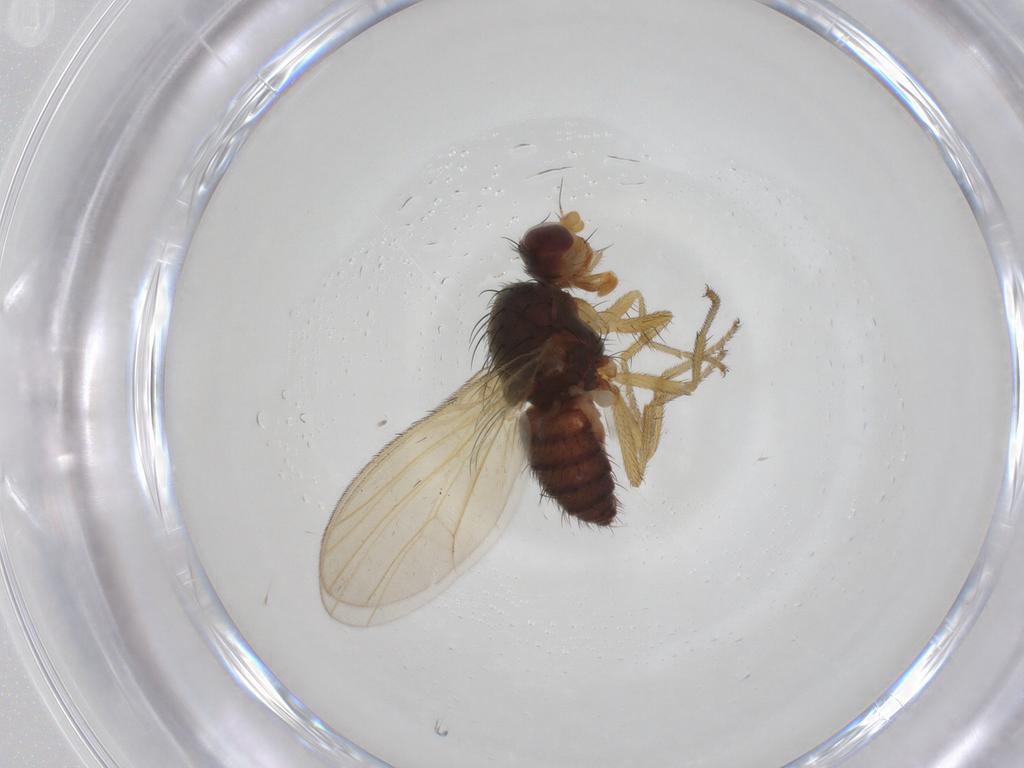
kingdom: Animalia
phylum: Arthropoda
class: Insecta
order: Diptera
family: Heleomyzidae
